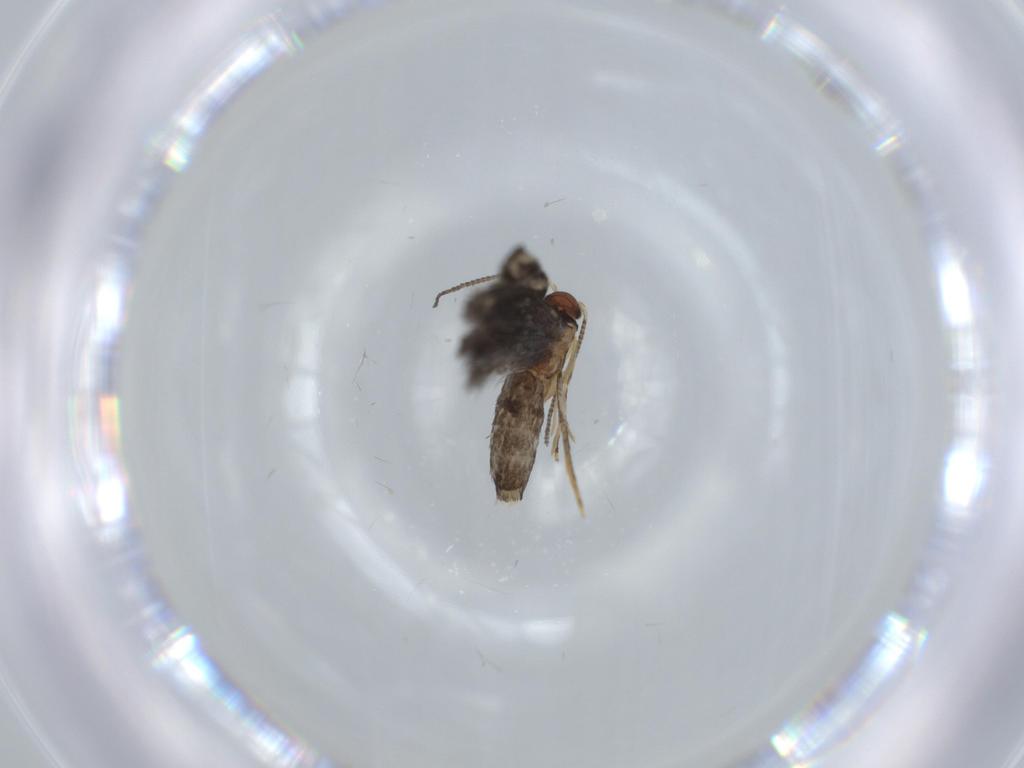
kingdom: Animalia
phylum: Arthropoda
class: Insecta
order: Lepidoptera
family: Tineidae
